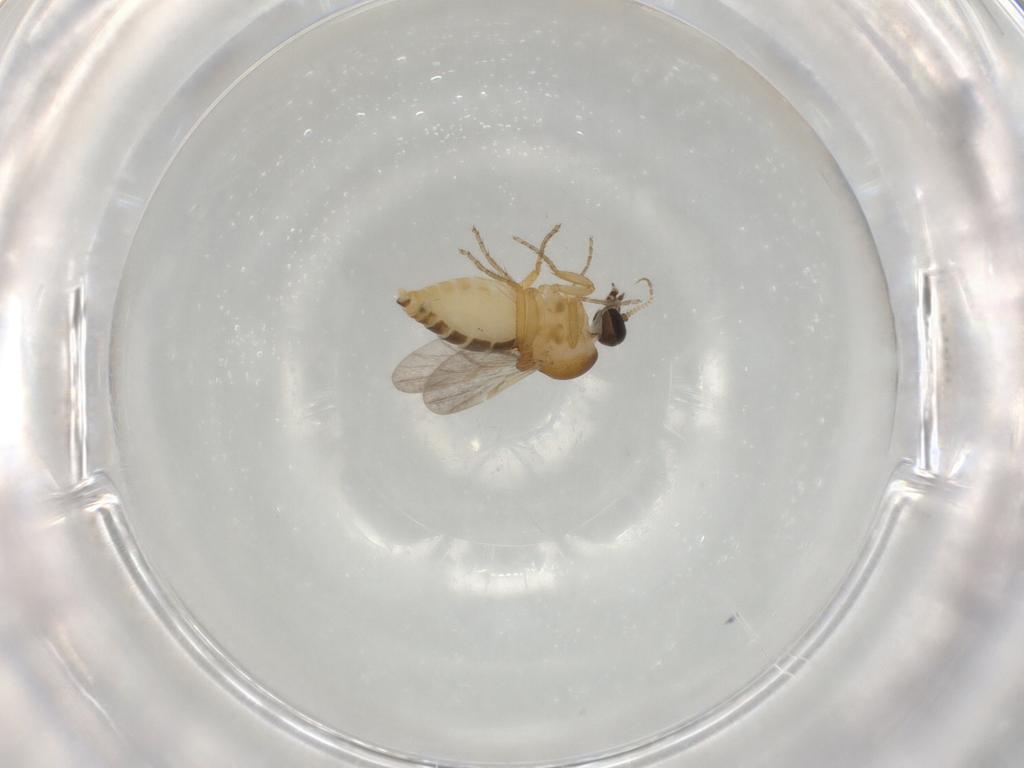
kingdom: Animalia
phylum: Arthropoda
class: Insecta
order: Diptera
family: Ceratopogonidae
